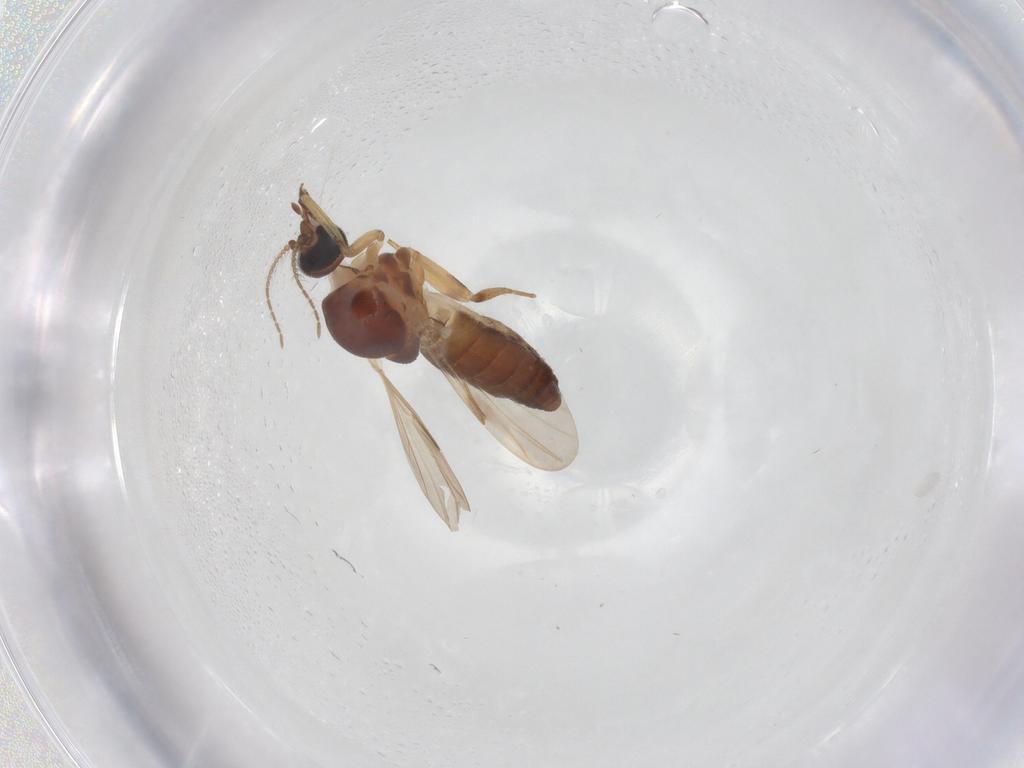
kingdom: Animalia
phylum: Arthropoda
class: Insecta
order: Diptera
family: Ceratopogonidae
